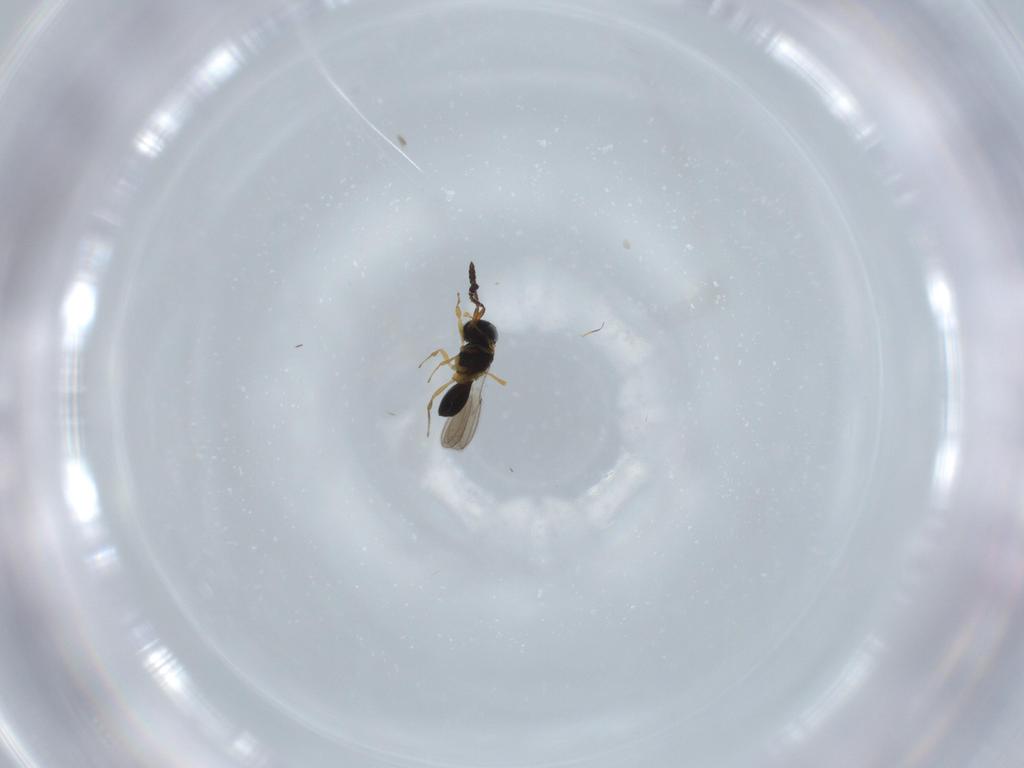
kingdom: Animalia
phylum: Arthropoda
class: Insecta
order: Hymenoptera
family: Scelionidae
